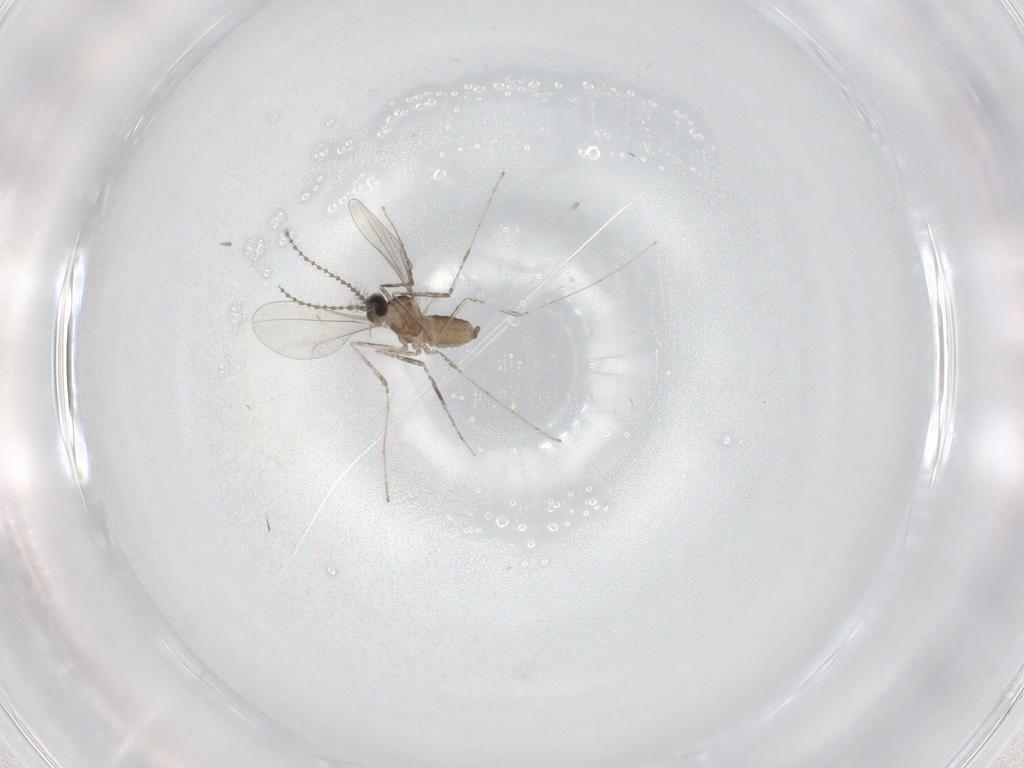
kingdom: Animalia
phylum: Arthropoda
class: Insecta
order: Diptera
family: Cecidomyiidae
